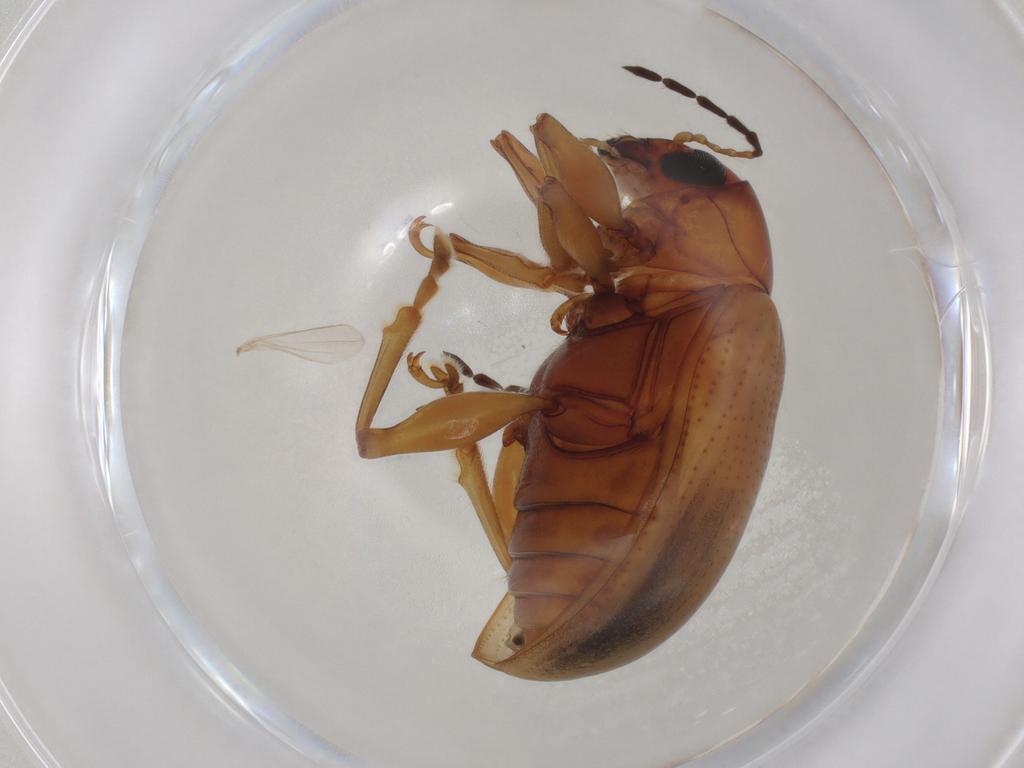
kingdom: Animalia
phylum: Arthropoda
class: Insecta
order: Coleoptera
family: Chrysomelidae
